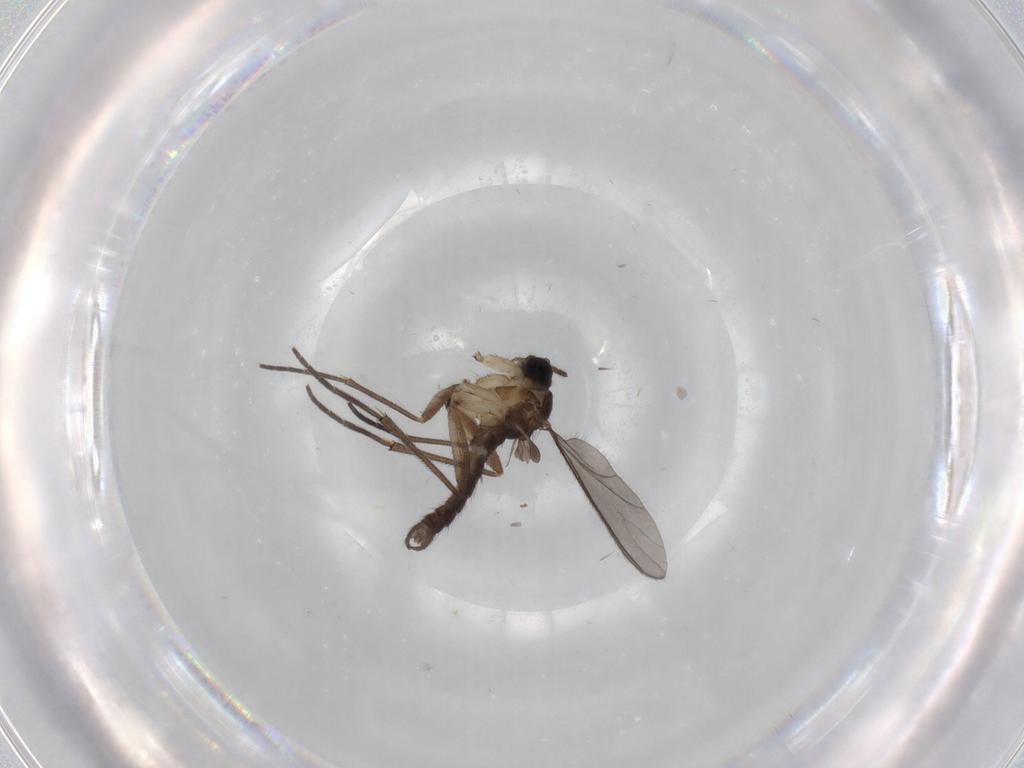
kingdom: Animalia
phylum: Arthropoda
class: Insecta
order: Diptera
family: Sciaridae
